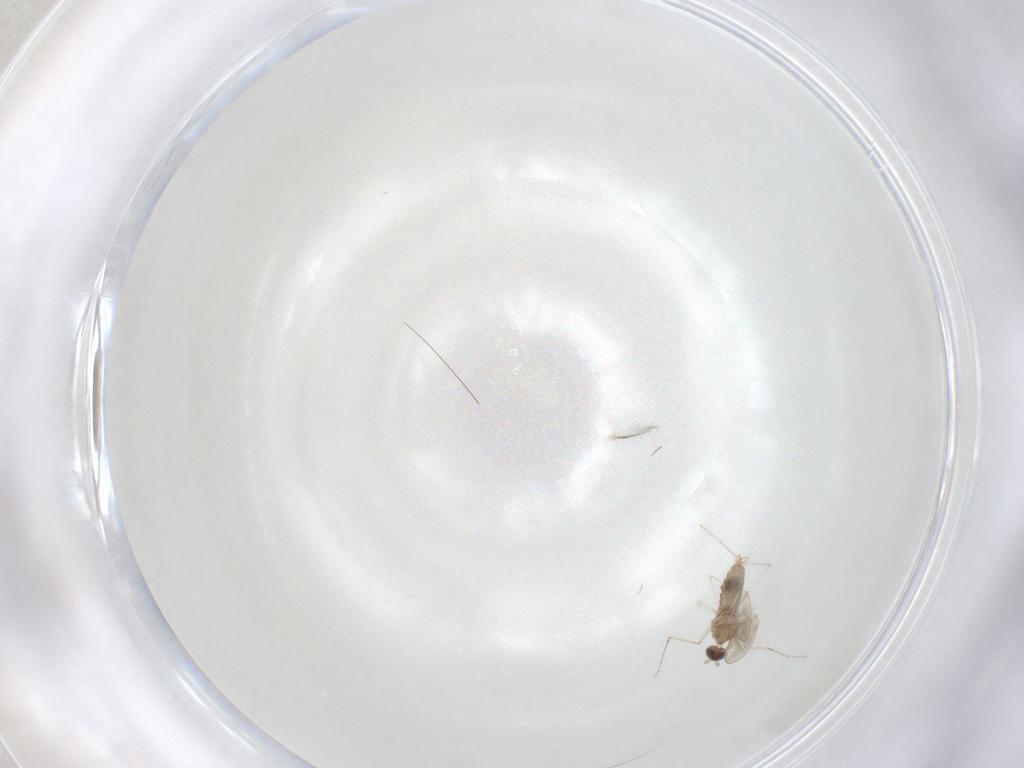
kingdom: Animalia
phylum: Arthropoda
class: Insecta
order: Diptera
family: Cecidomyiidae
